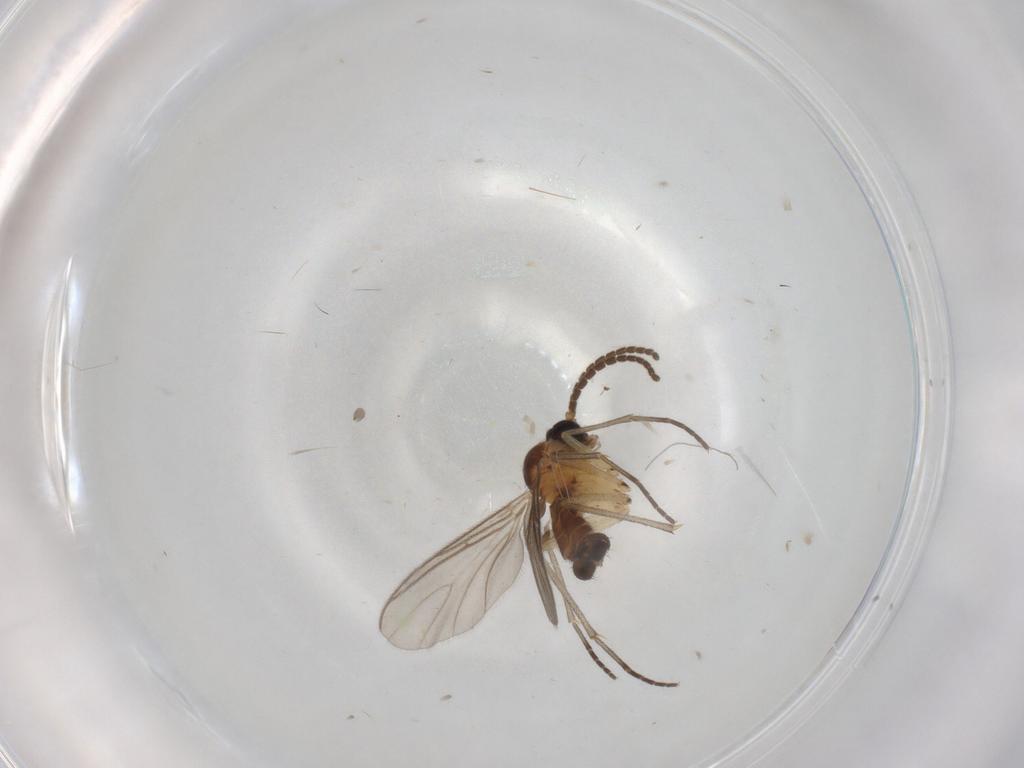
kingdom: Animalia
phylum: Arthropoda
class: Insecta
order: Diptera
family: Sciaridae
